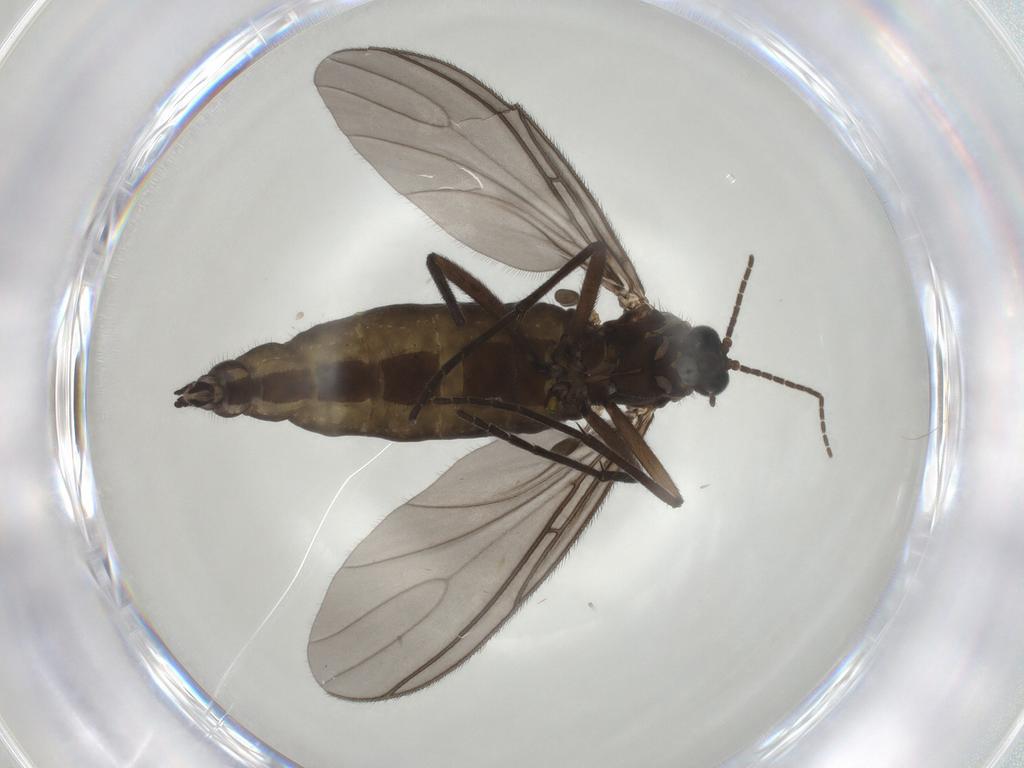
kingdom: Animalia
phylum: Arthropoda
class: Insecta
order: Diptera
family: Sciaridae
